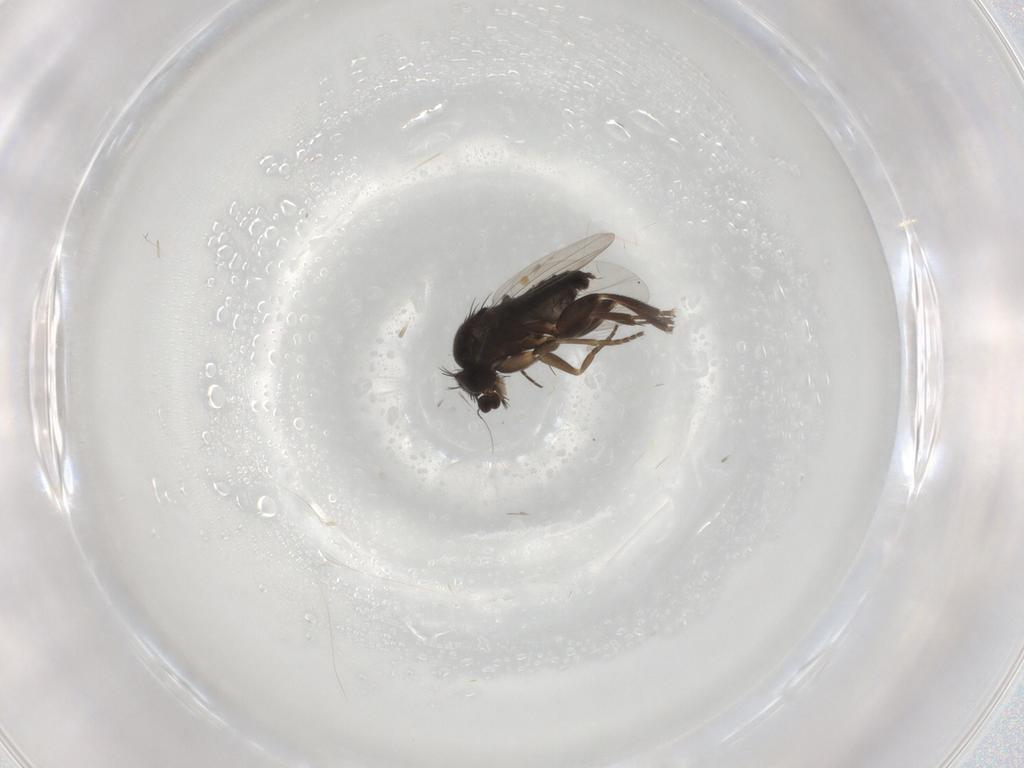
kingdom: Animalia
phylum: Arthropoda
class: Insecta
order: Diptera
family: Phoridae
